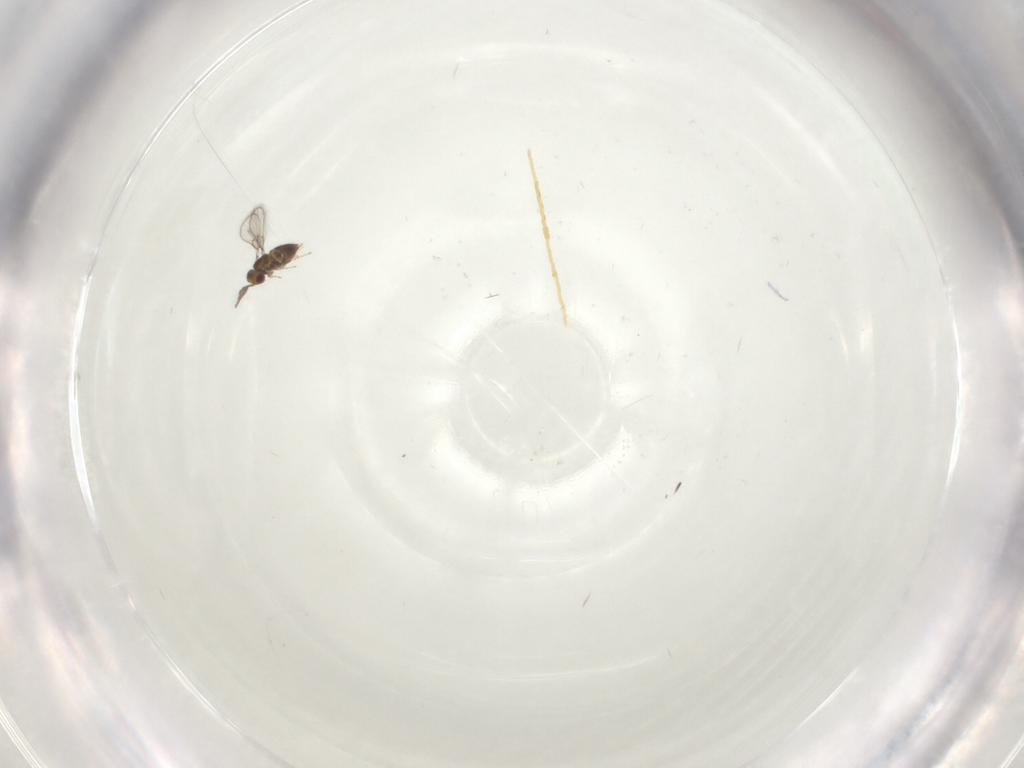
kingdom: Animalia
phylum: Arthropoda
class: Insecta
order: Hymenoptera
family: Trichogrammatidae
